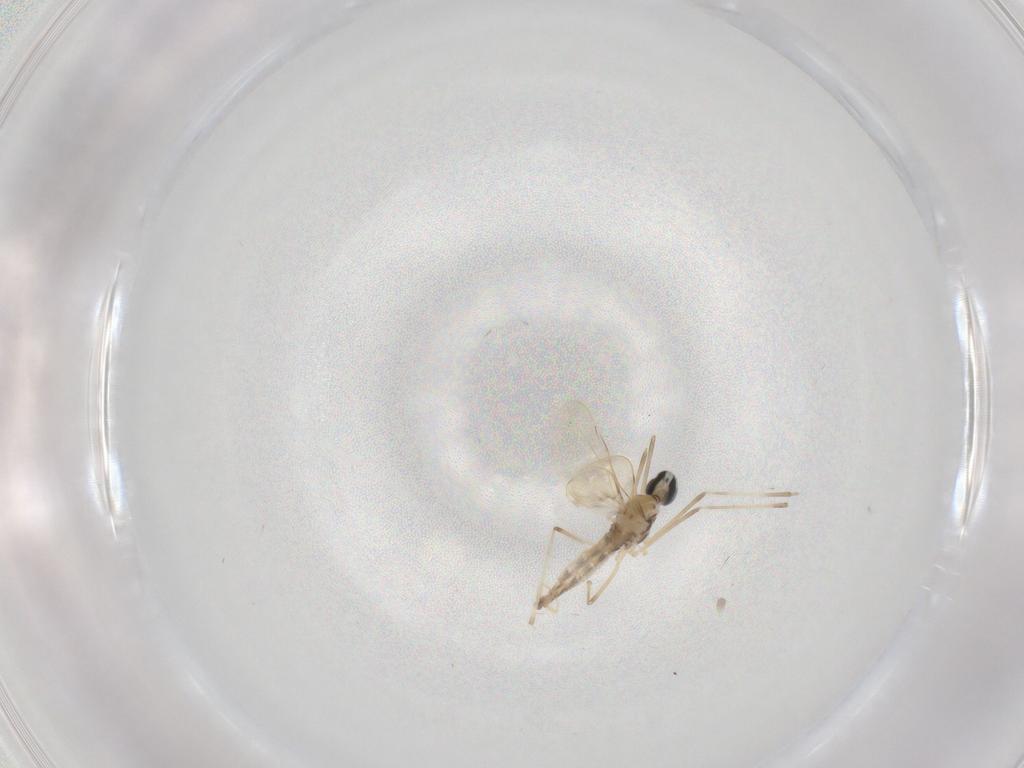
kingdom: Animalia
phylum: Arthropoda
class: Insecta
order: Diptera
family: Cecidomyiidae
